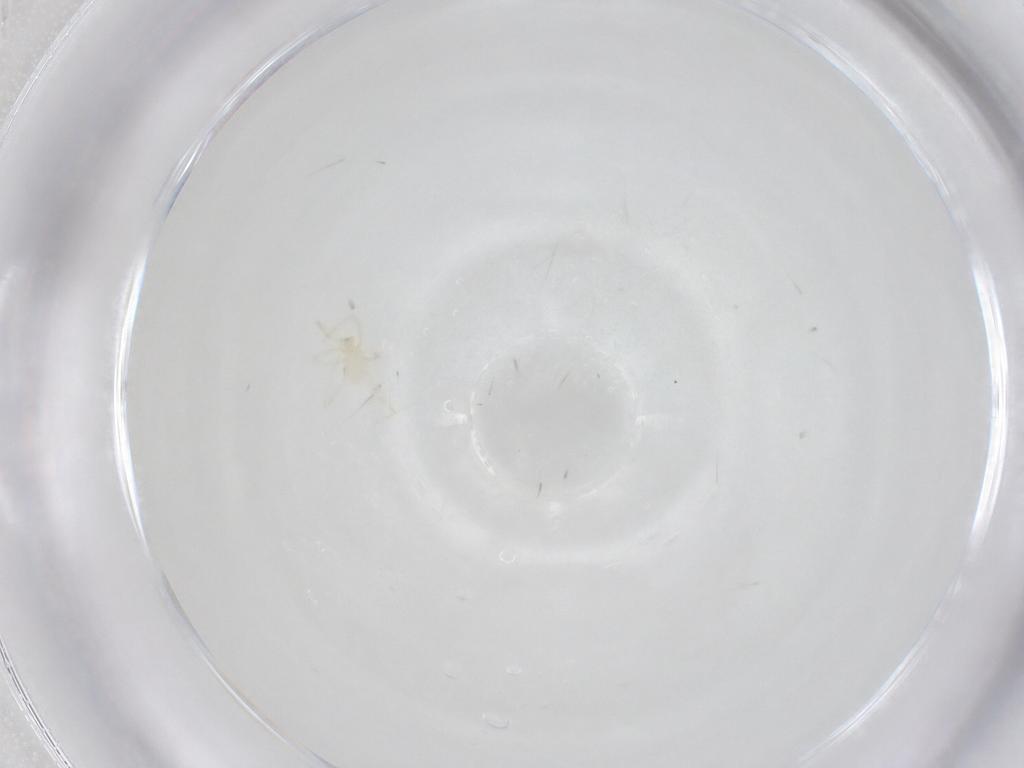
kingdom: Animalia
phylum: Arthropoda
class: Arachnida
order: Trombidiformes
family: Erythraeidae
